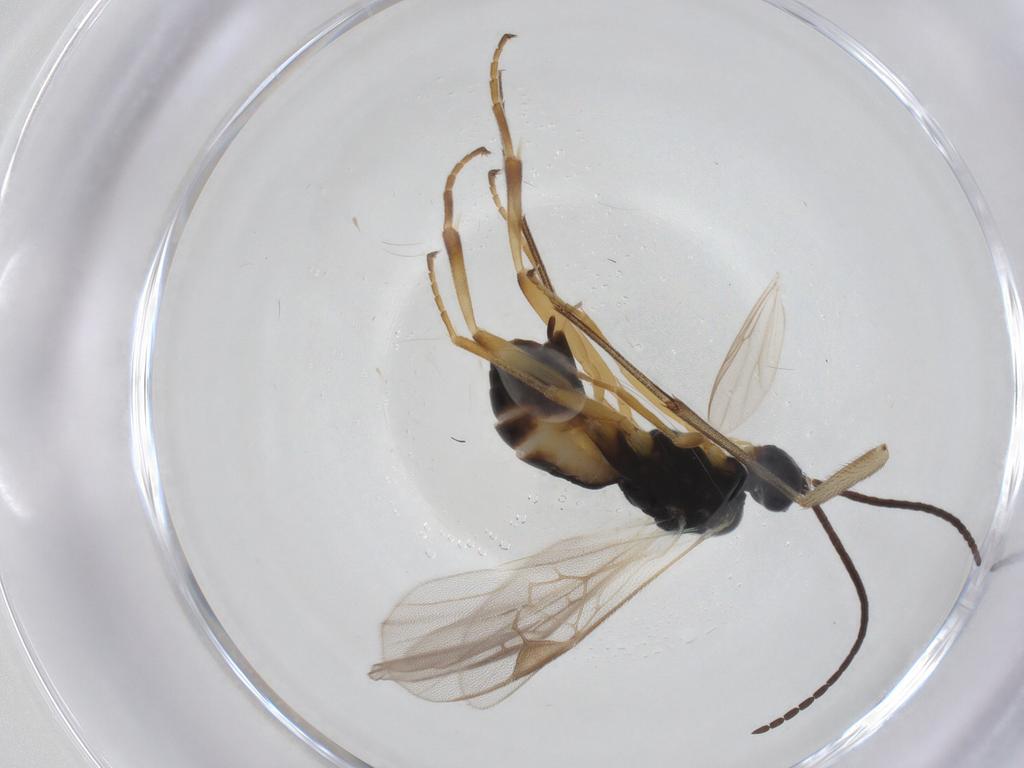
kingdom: Animalia
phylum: Arthropoda
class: Insecta
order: Hymenoptera
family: Braconidae
